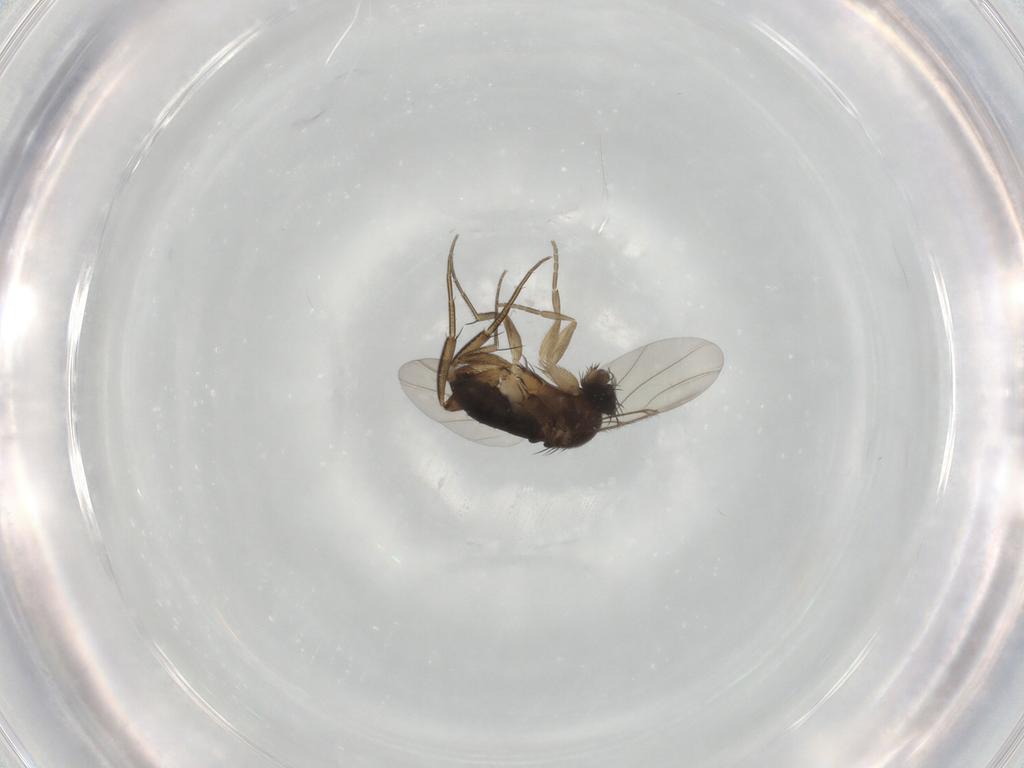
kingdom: Animalia
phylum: Arthropoda
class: Insecta
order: Diptera
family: Phoridae
